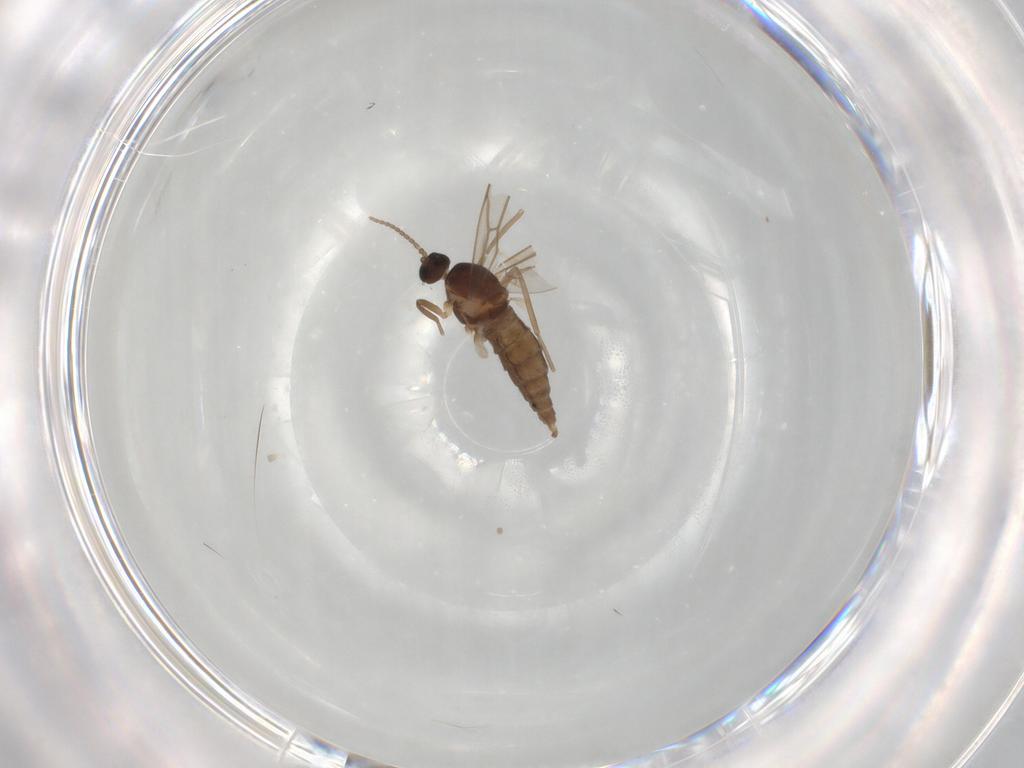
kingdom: Animalia
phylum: Arthropoda
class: Insecta
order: Diptera
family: Cecidomyiidae
